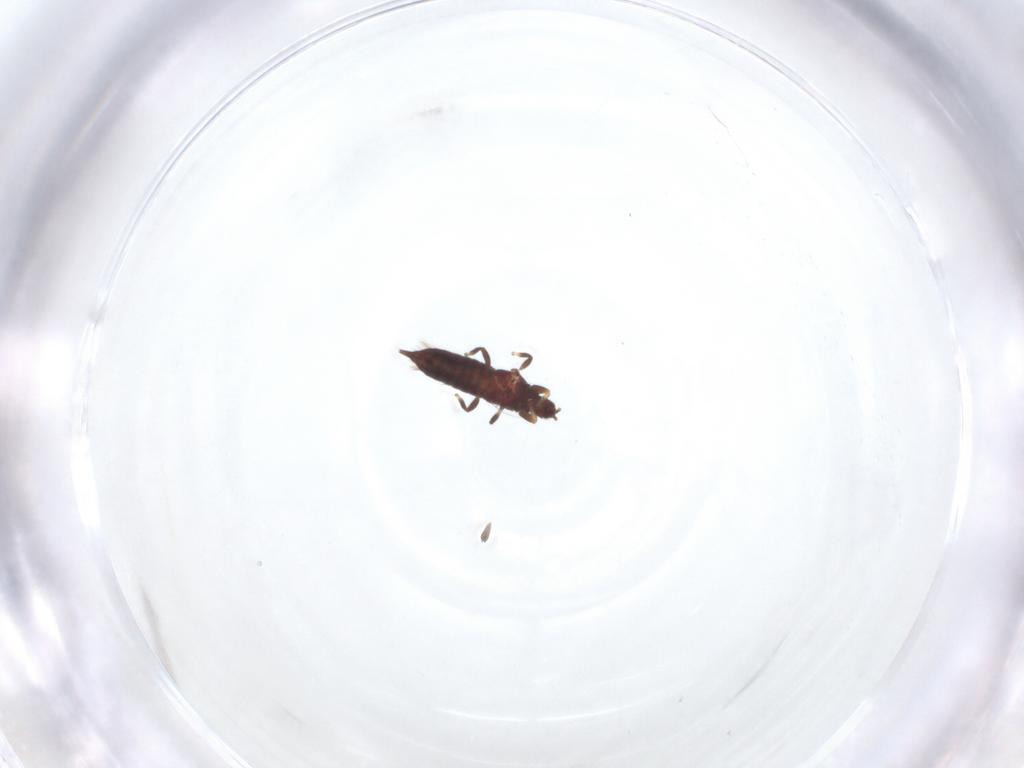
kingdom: Animalia
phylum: Arthropoda
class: Insecta
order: Thysanoptera
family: Phlaeothripidae
